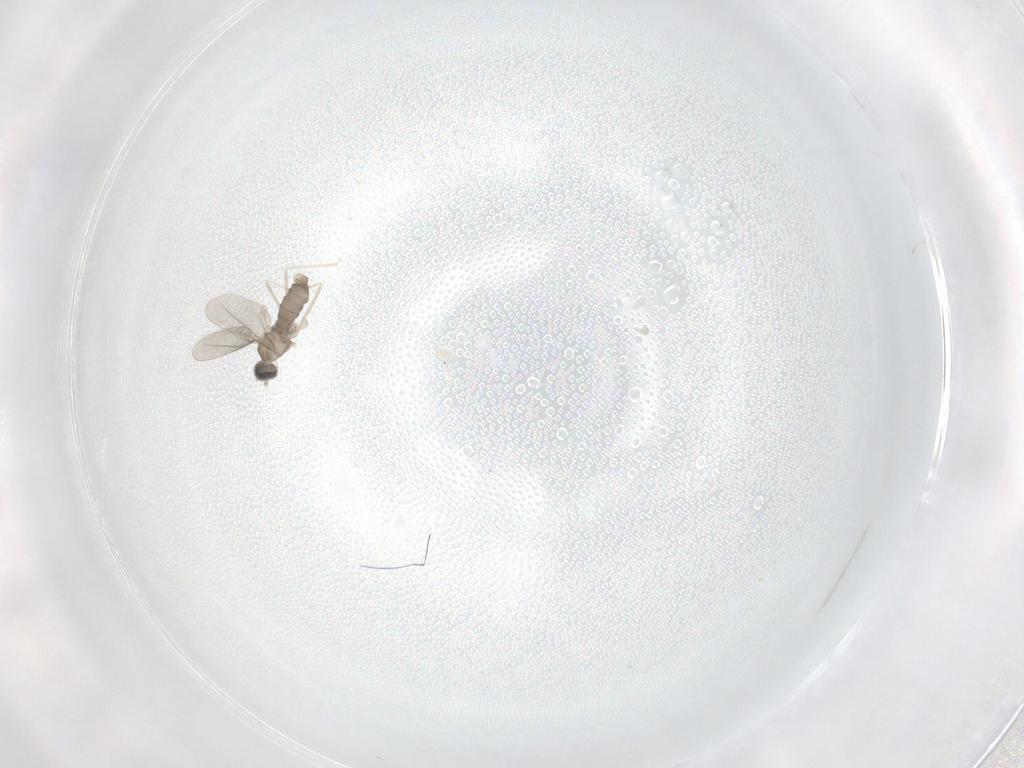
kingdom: Animalia
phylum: Arthropoda
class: Insecta
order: Diptera
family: Cecidomyiidae
